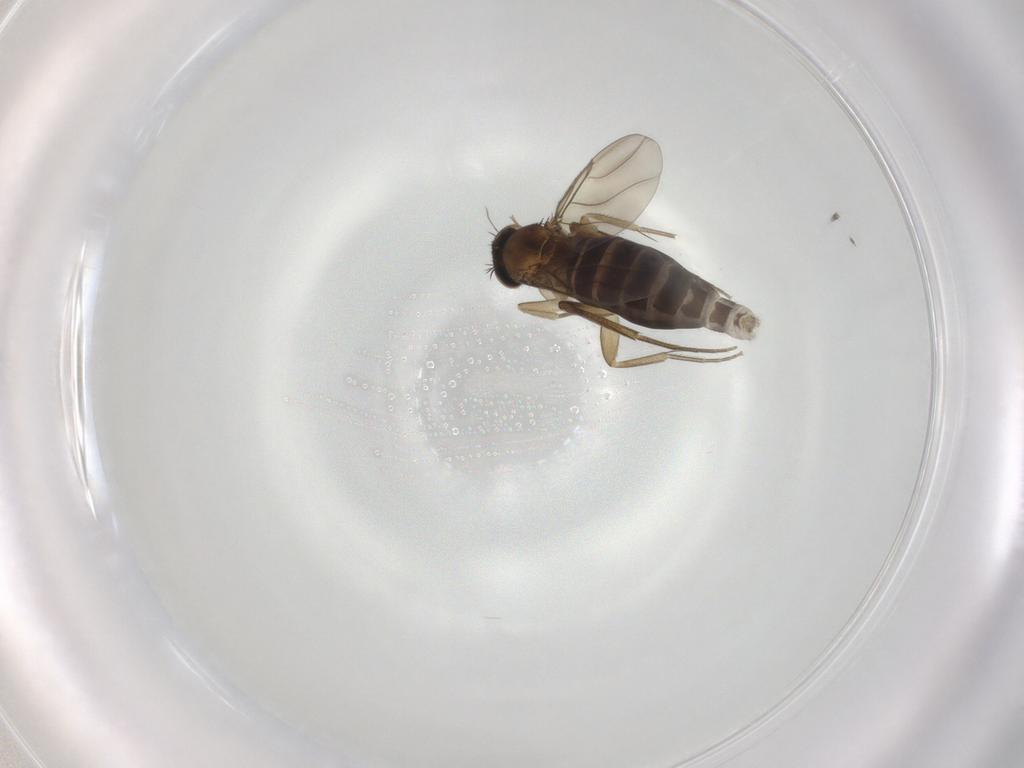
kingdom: Animalia
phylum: Arthropoda
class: Insecta
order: Diptera
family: Phoridae
